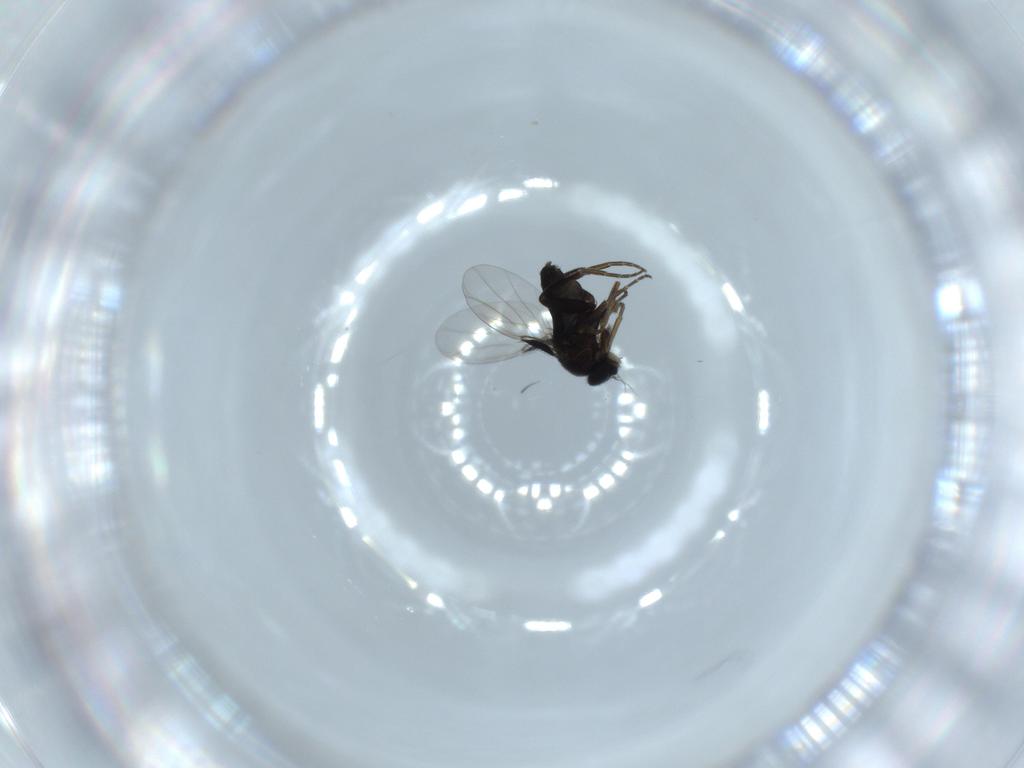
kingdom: Animalia
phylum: Arthropoda
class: Insecta
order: Diptera
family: Phoridae
